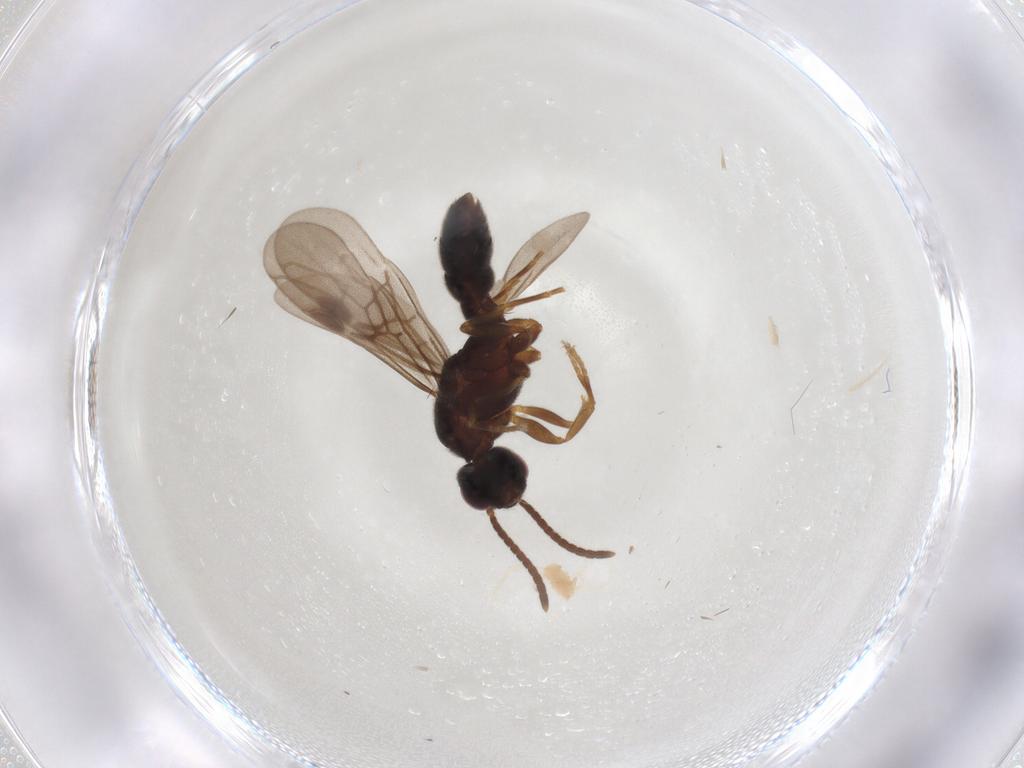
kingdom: Animalia
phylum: Arthropoda
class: Insecta
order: Hymenoptera
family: Formicidae
